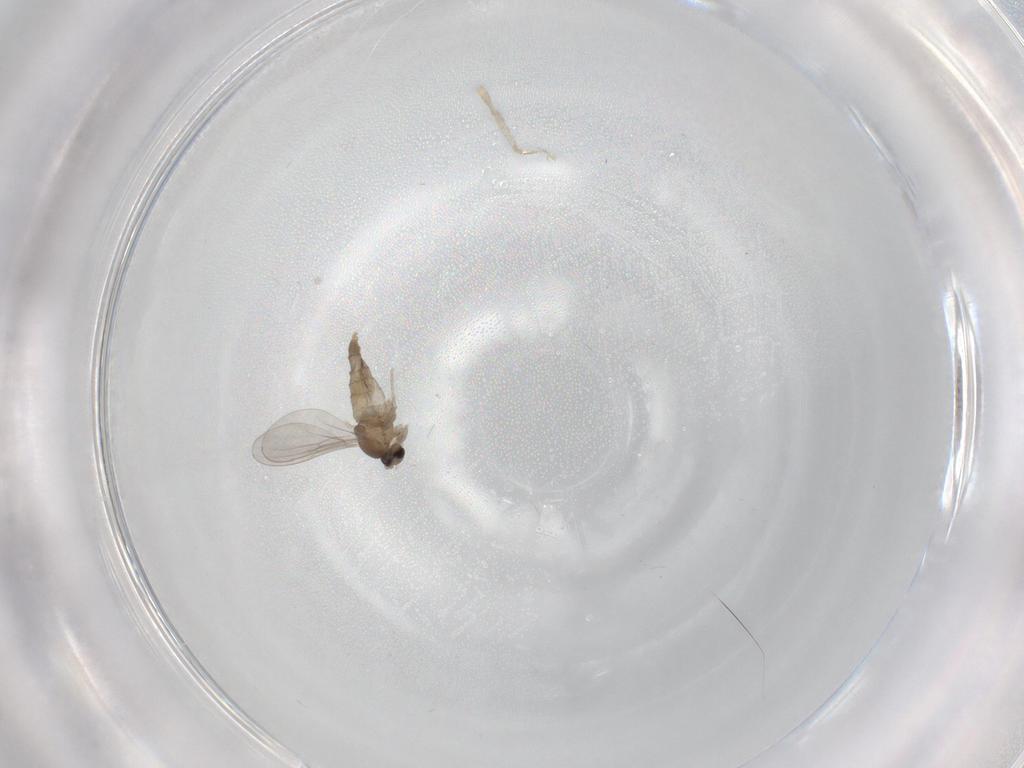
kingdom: Animalia
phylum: Arthropoda
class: Insecta
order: Diptera
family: Cecidomyiidae
